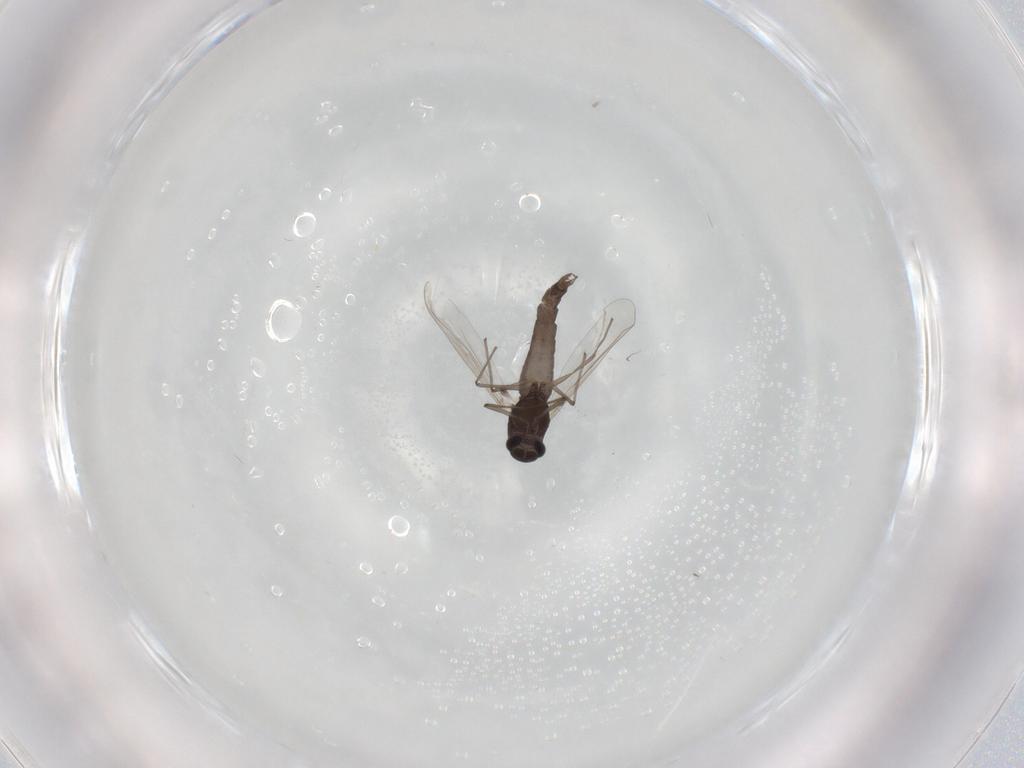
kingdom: Animalia
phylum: Arthropoda
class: Insecta
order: Diptera
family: Chironomidae
